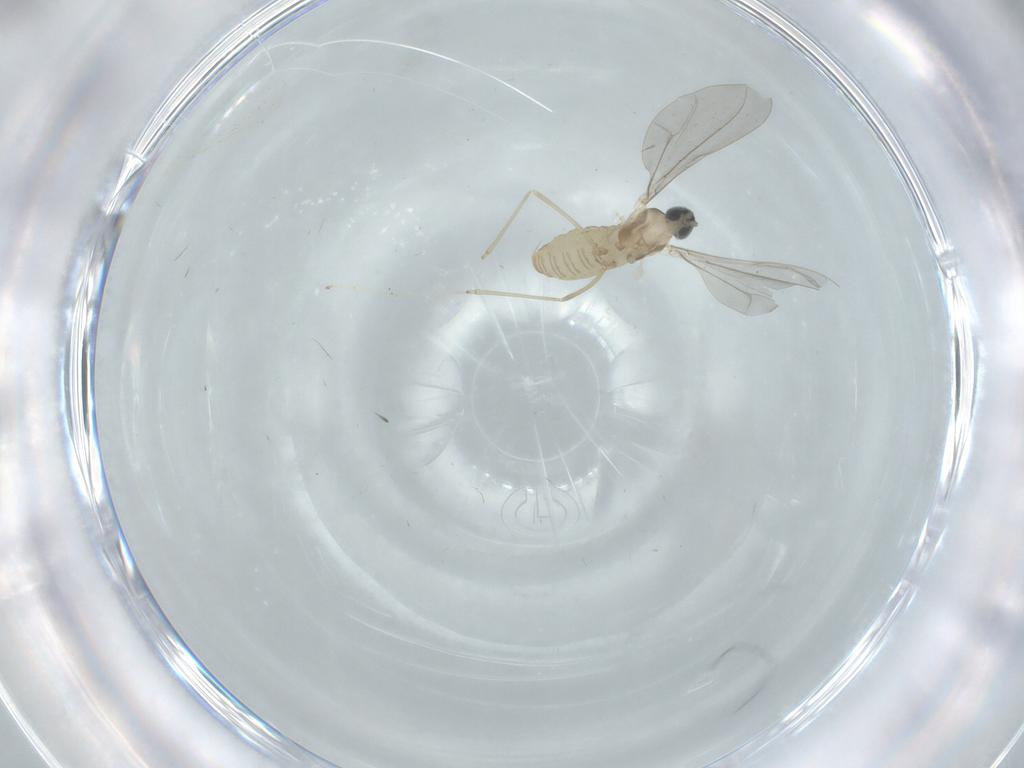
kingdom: Animalia
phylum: Arthropoda
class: Insecta
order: Diptera
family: Cecidomyiidae
